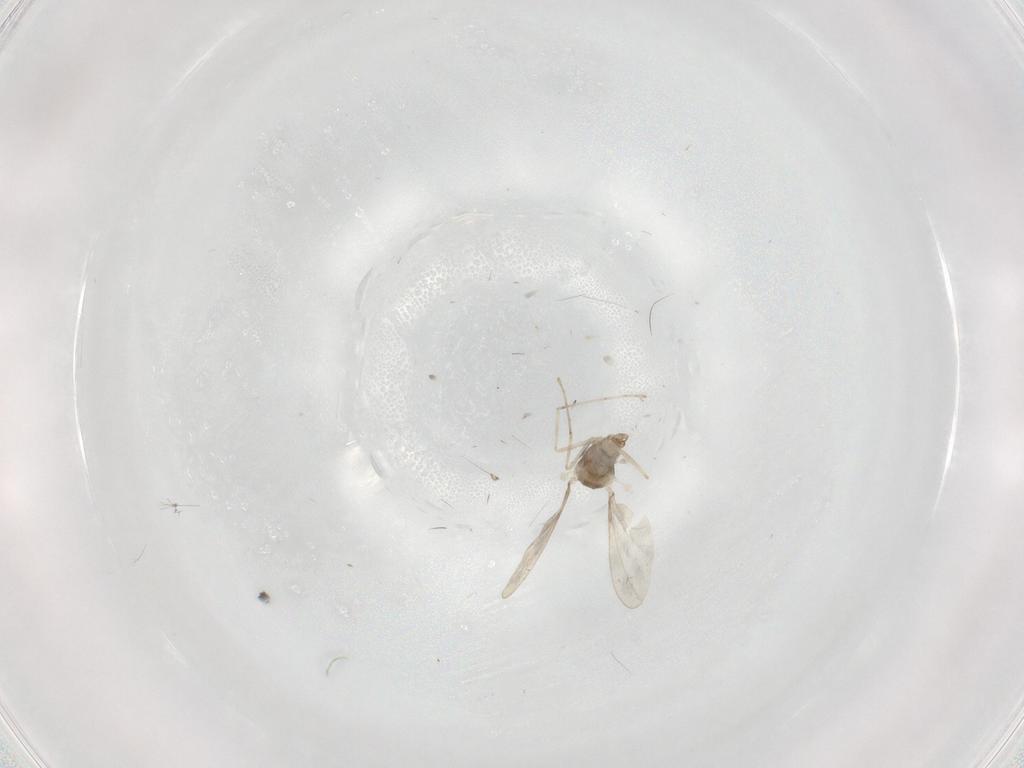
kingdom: Animalia
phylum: Arthropoda
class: Insecta
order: Diptera
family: Cecidomyiidae
